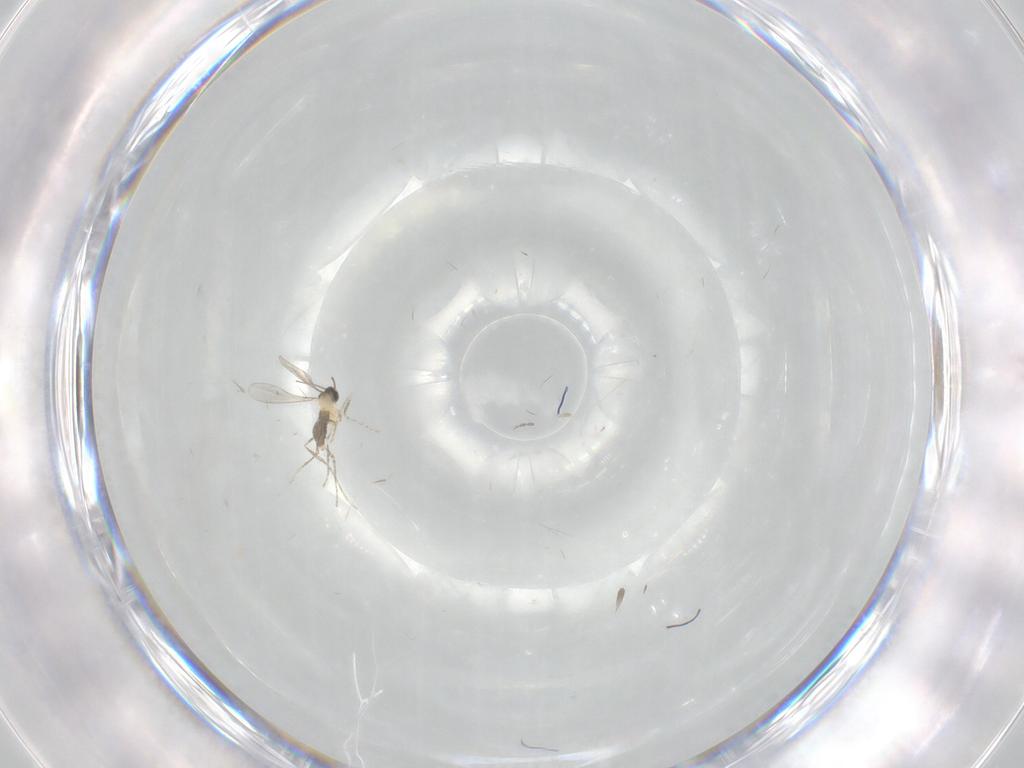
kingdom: Animalia
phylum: Arthropoda
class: Insecta
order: Diptera
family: Cecidomyiidae
